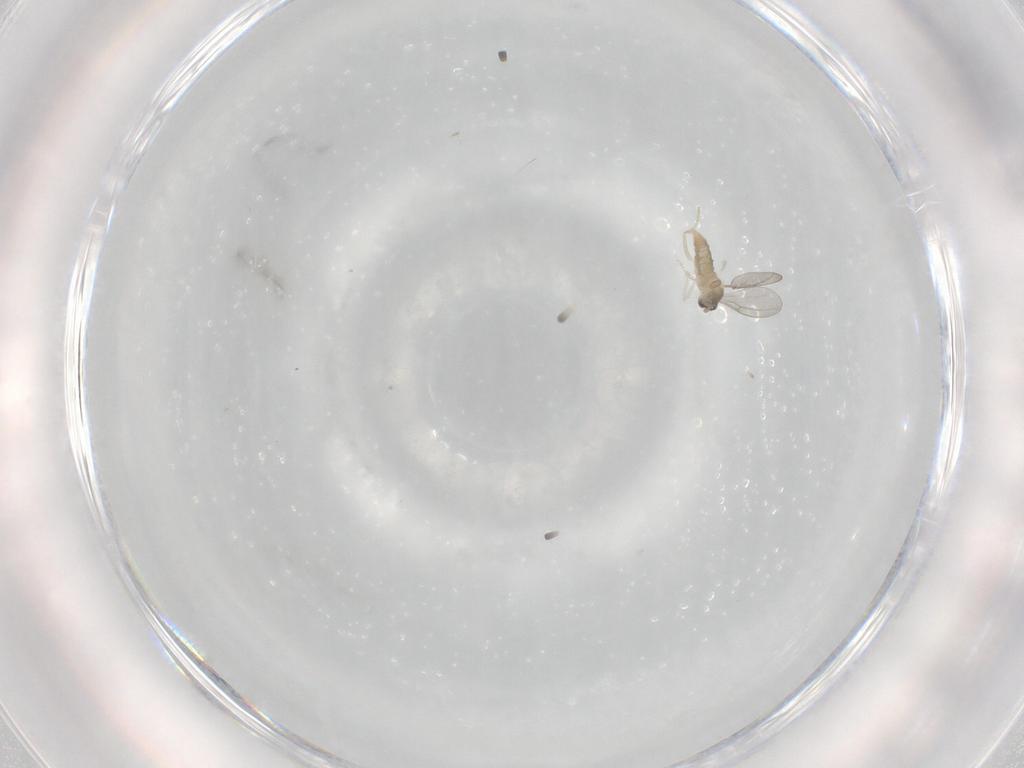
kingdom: Animalia
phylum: Arthropoda
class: Insecta
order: Diptera
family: Cecidomyiidae
